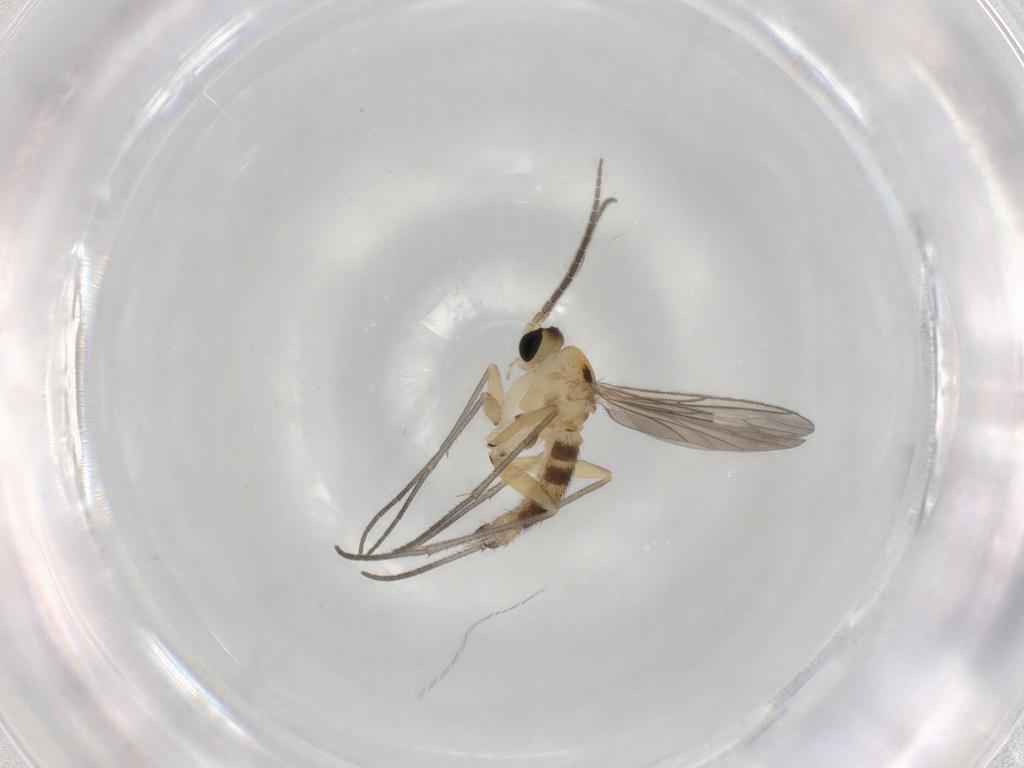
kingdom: Animalia
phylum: Arthropoda
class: Insecta
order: Diptera
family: Sciaridae
